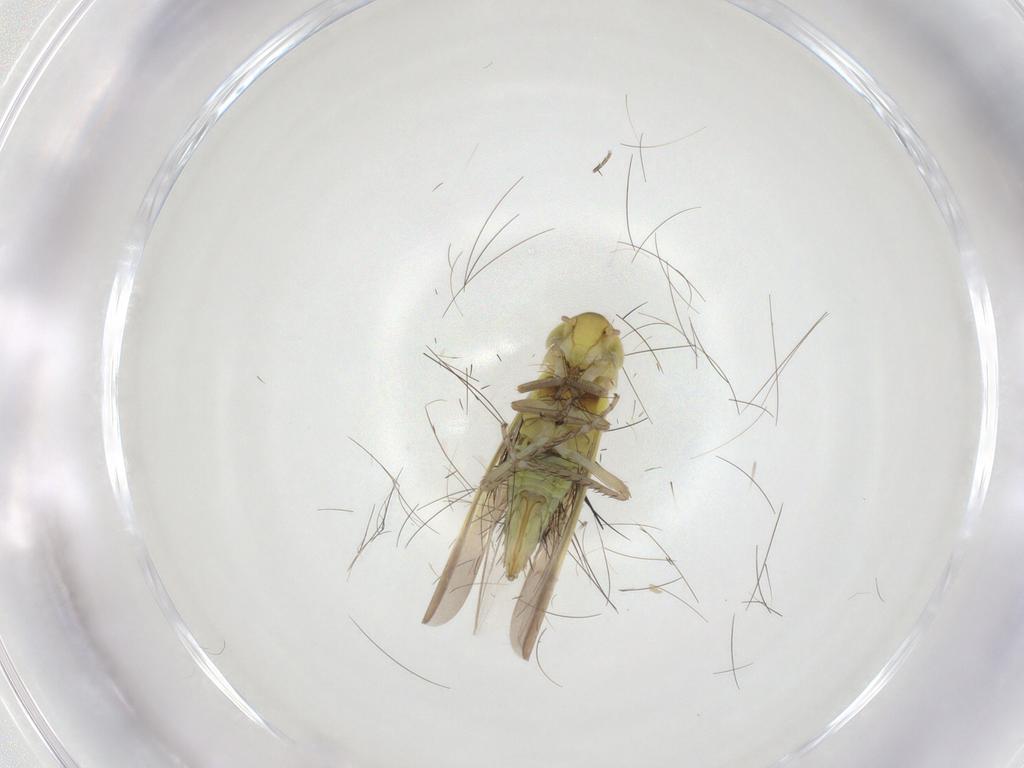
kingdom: Animalia
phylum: Arthropoda
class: Insecta
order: Hemiptera
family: Cicadellidae
